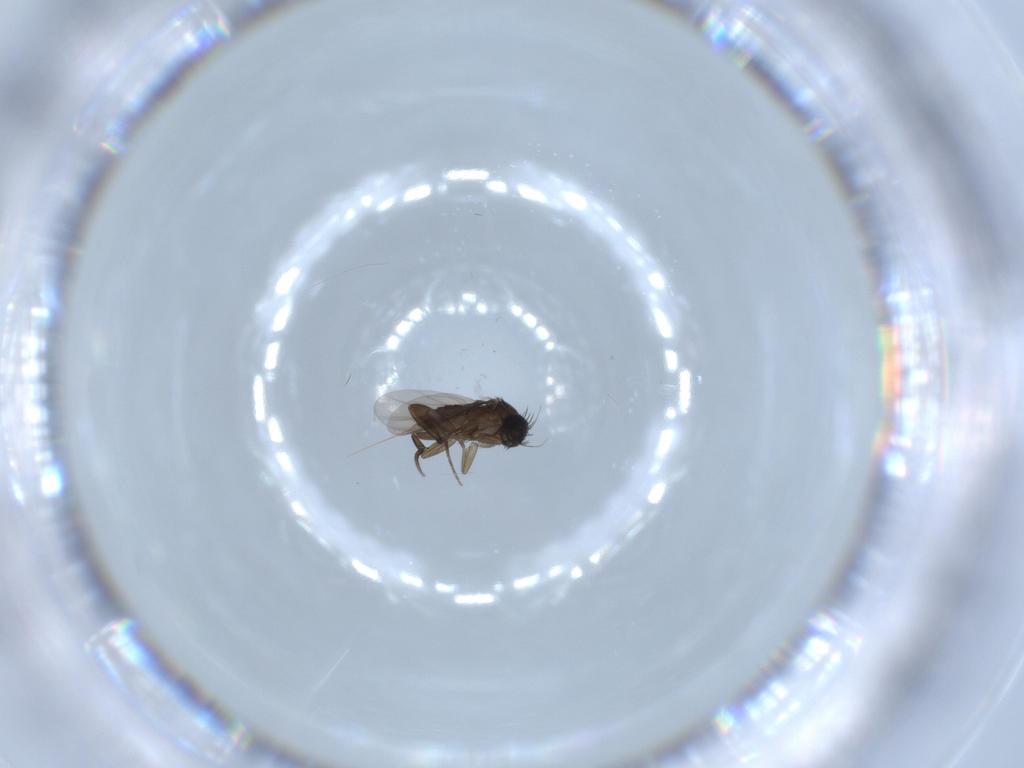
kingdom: Animalia
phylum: Arthropoda
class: Insecta
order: Diptera
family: Phoridae
